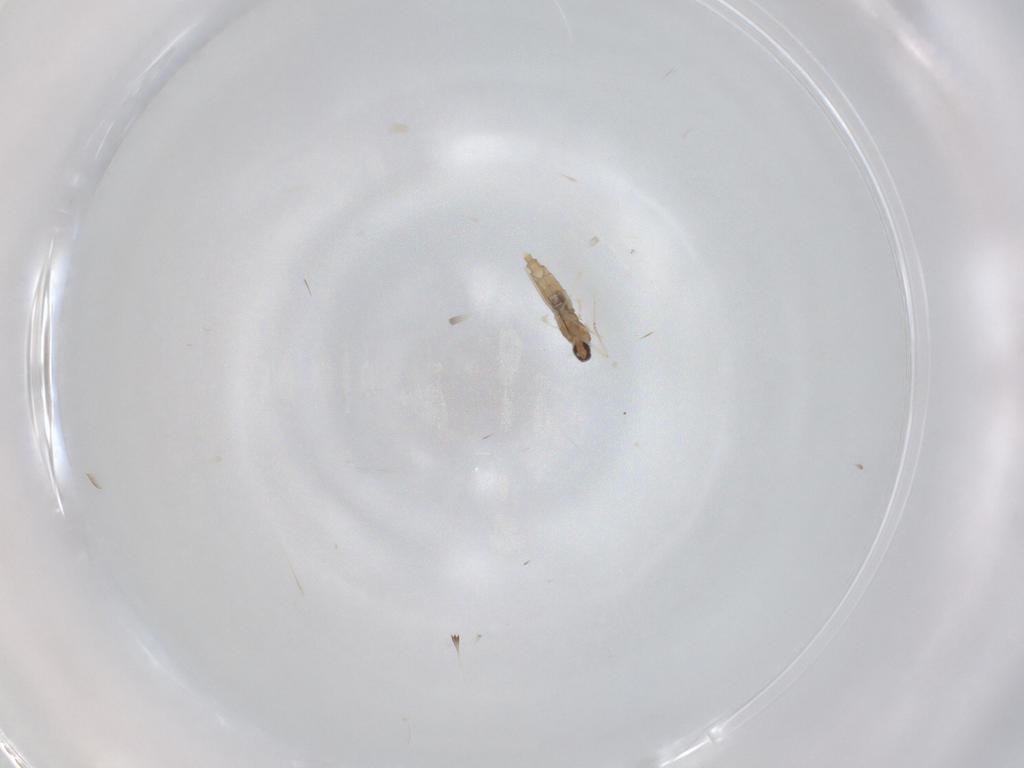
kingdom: Animalia
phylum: Arthropoda
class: Insecta
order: Diptera
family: Cecidomyiidae
